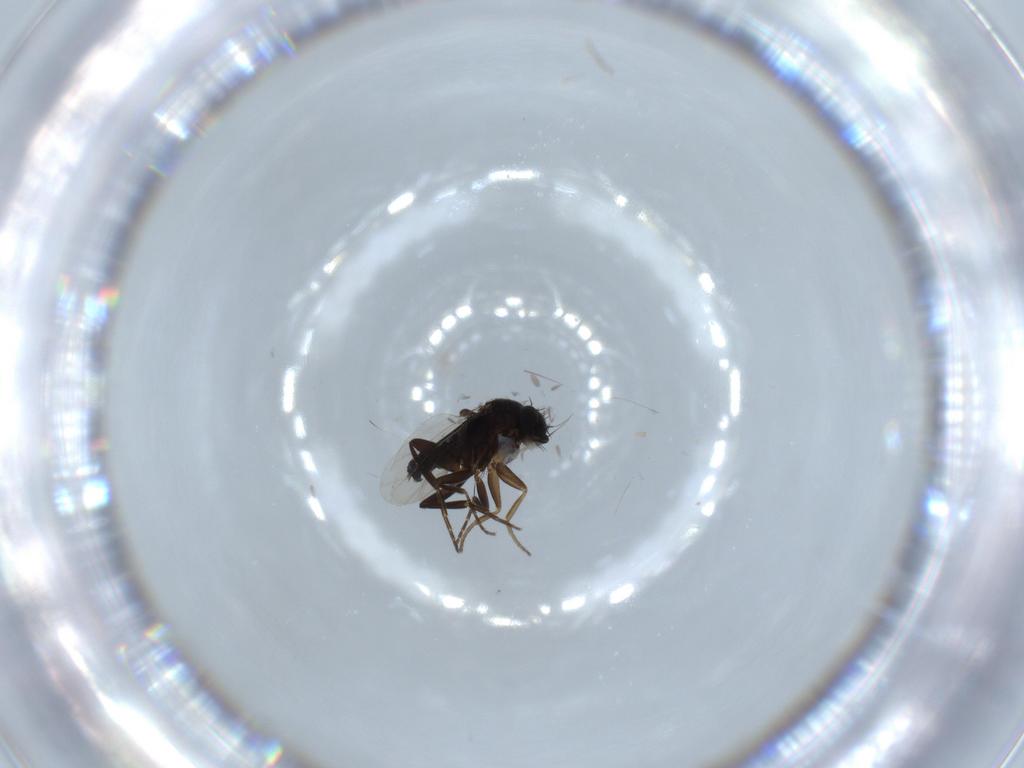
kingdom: Animalia
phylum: Arthropoda
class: Insecta
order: Diptera
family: Phoridae
